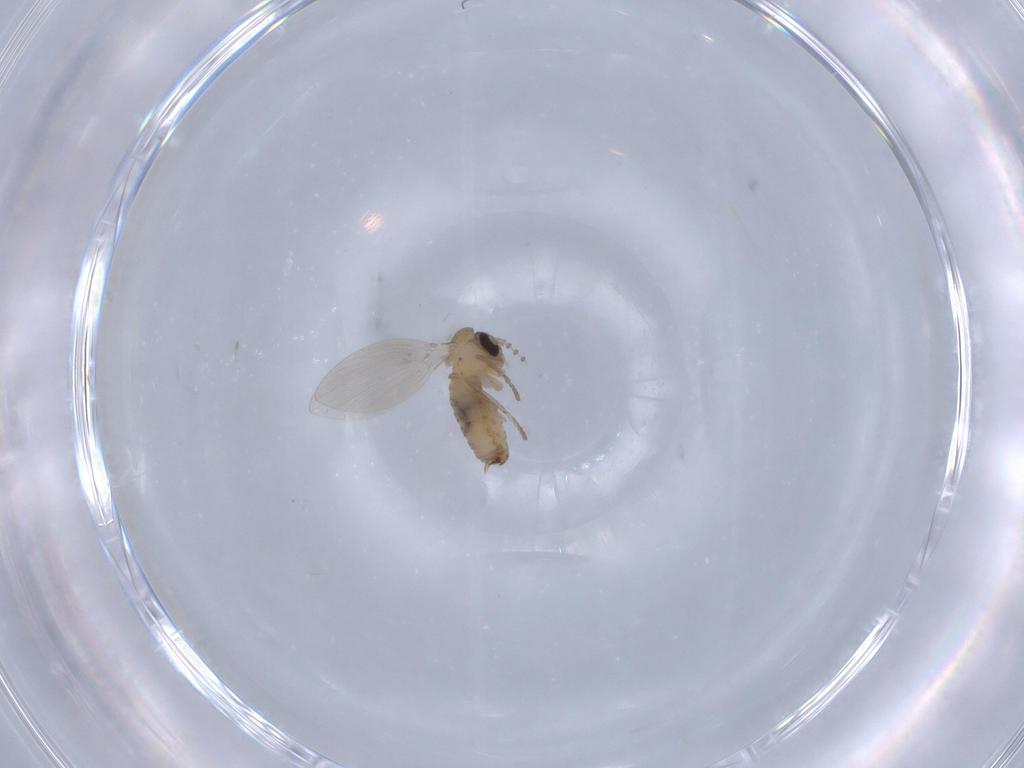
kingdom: Animalia
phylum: Arthropoda
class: Insecta
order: Diptera
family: Psychodidae
